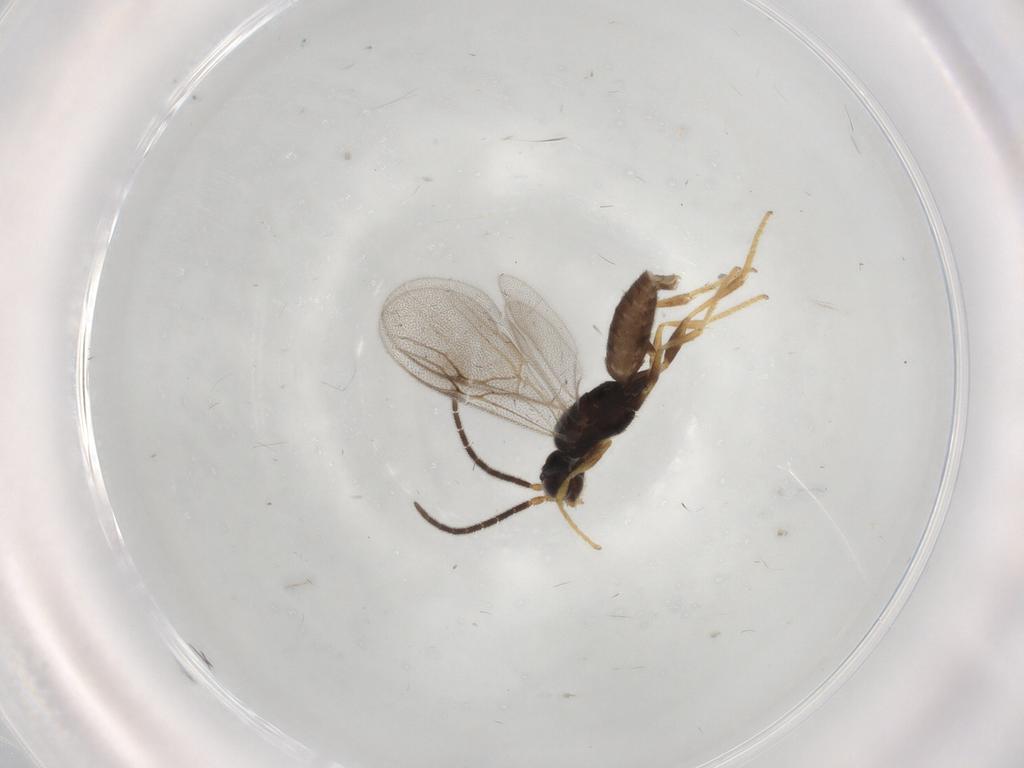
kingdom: Animalia
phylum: Arthropoda
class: Insecta
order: Hymenoptera
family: Dryinidae
